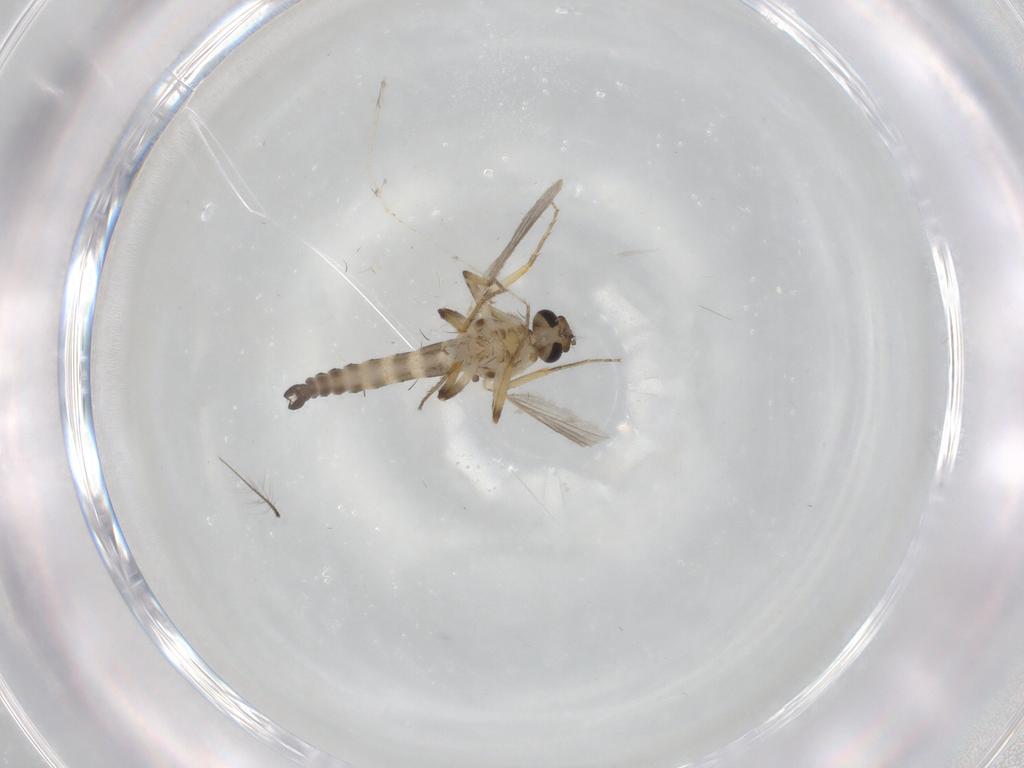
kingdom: Animalia
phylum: Arthropoda
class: Insecta
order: Diptera
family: Ceratopogonidae
